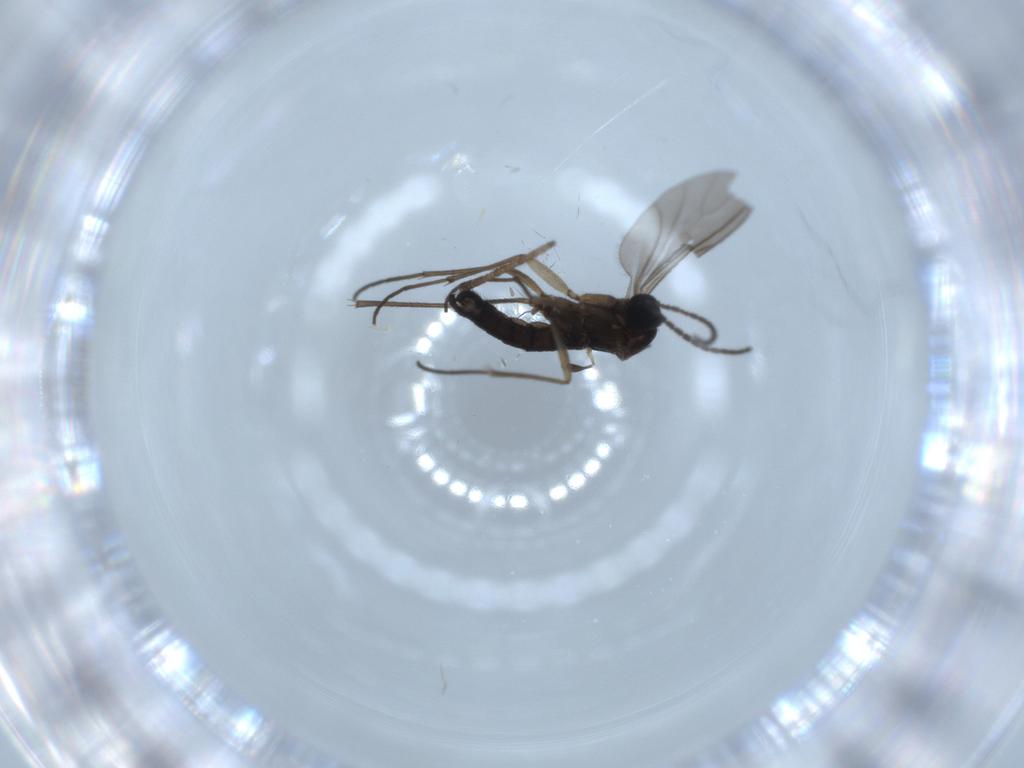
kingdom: Animalia
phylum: Arthropoda
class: Insecta
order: Diptera
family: Sciaridae
